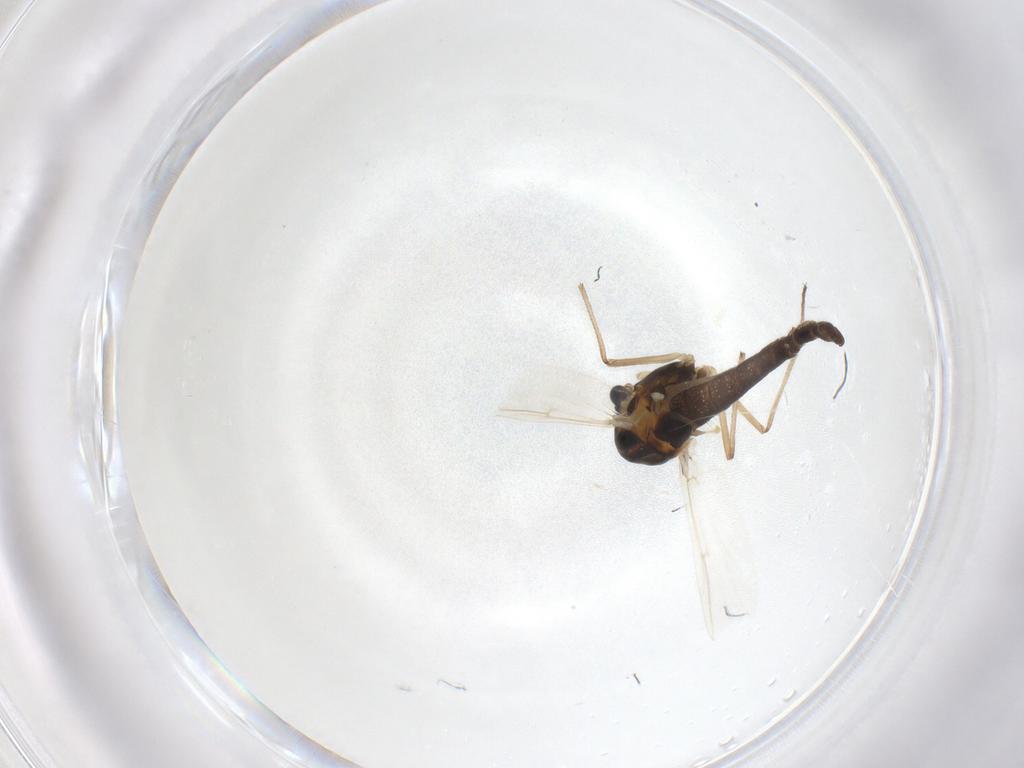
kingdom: Animalia
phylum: Arthropoda
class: Insecta
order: Diptera
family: Chironomidae
